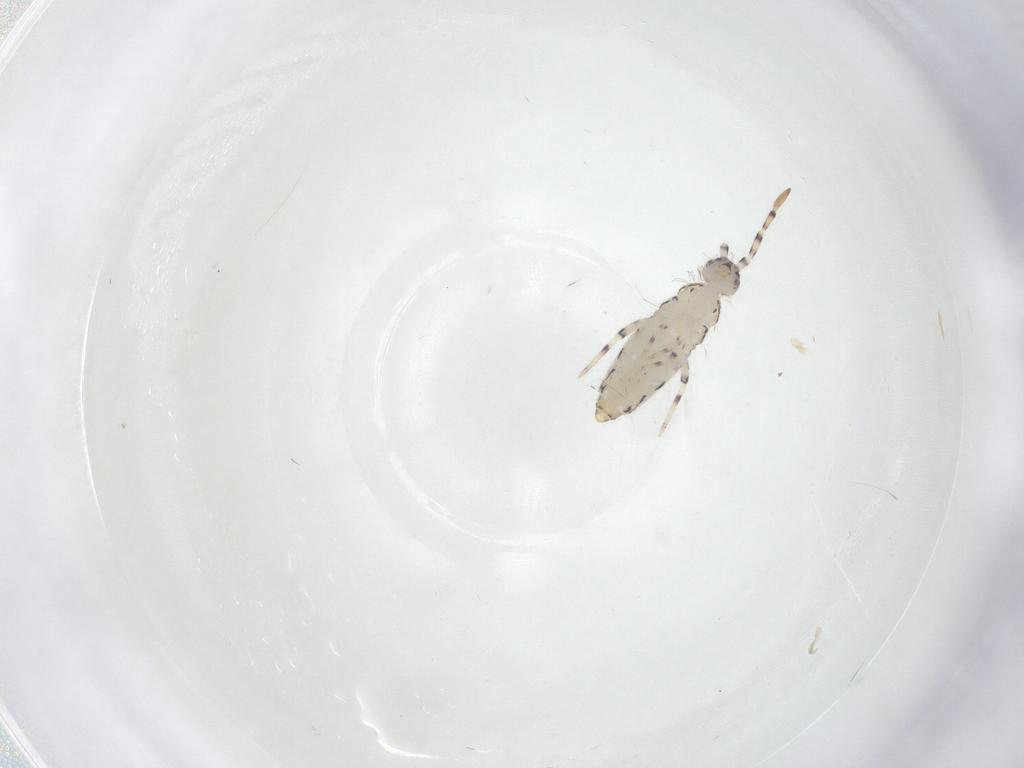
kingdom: Animalia
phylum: Arthropoda
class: Collembola
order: Entomobryomorpha
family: Entomobryidae
